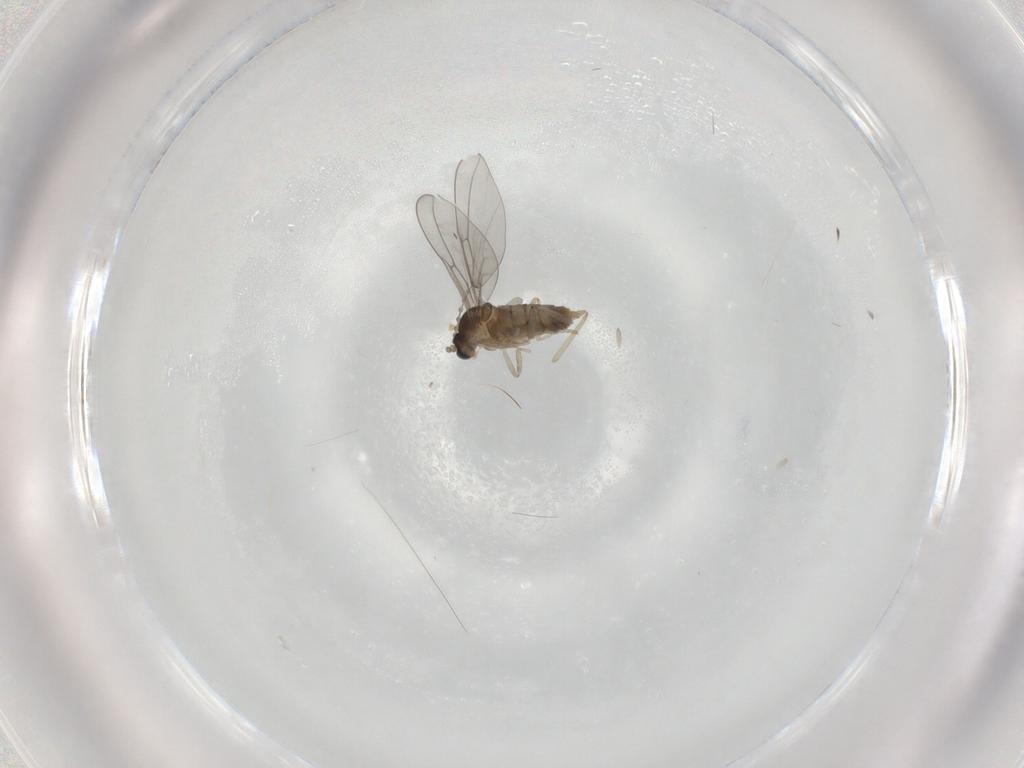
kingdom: Animalia
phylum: Arthropoda
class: Insecta
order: Diptera
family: Cecidomyiidae
